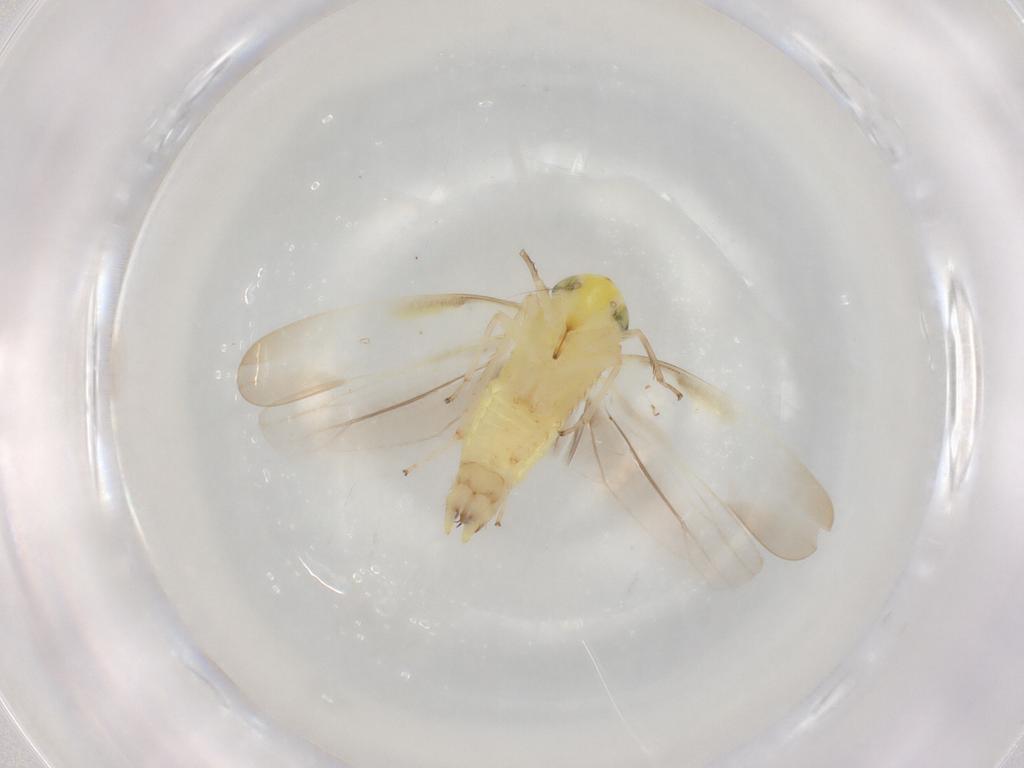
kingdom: Animalia
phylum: Arthropoda
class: Insecta
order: Hemiptera
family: Cicadellidae
